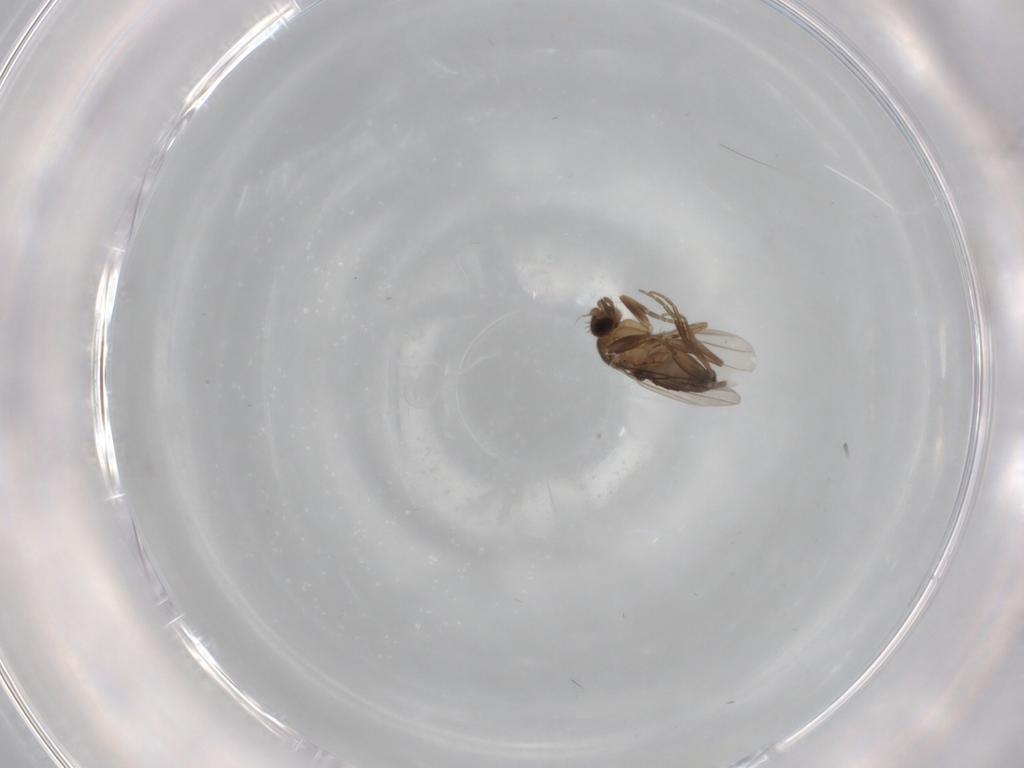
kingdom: Animalia
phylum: Arthropoda
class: Insecta
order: Diptera
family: Phoridae
